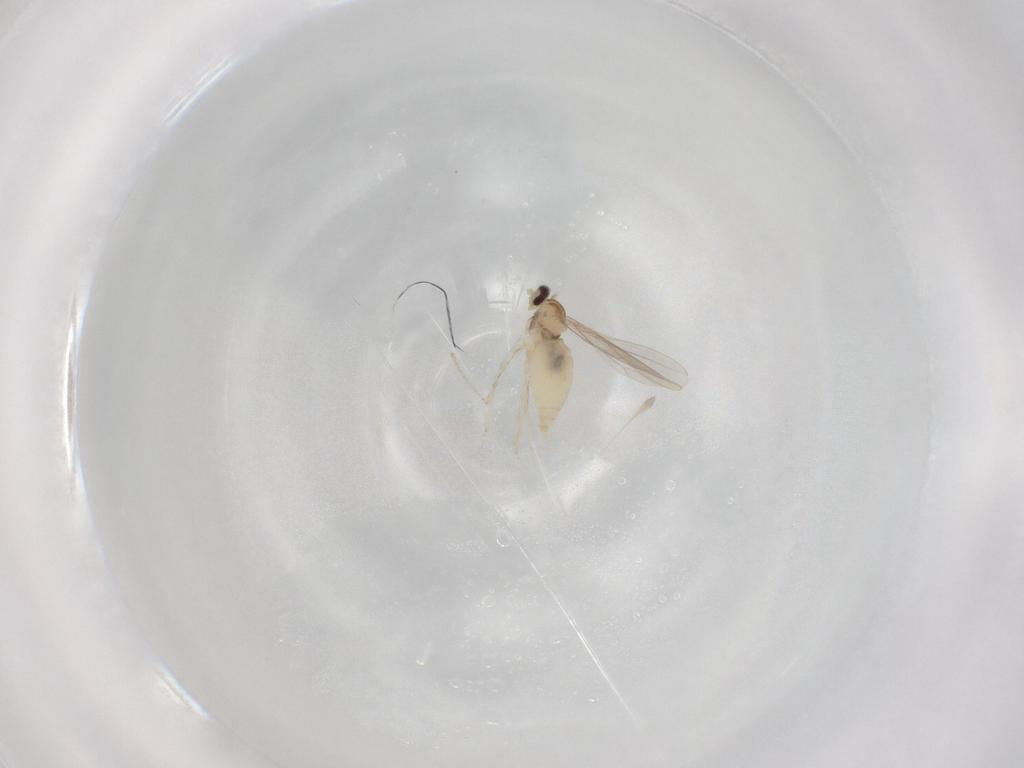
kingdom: Animalia
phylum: Arthropoda
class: Insecta
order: Diptera
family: Cecidomyiidae
